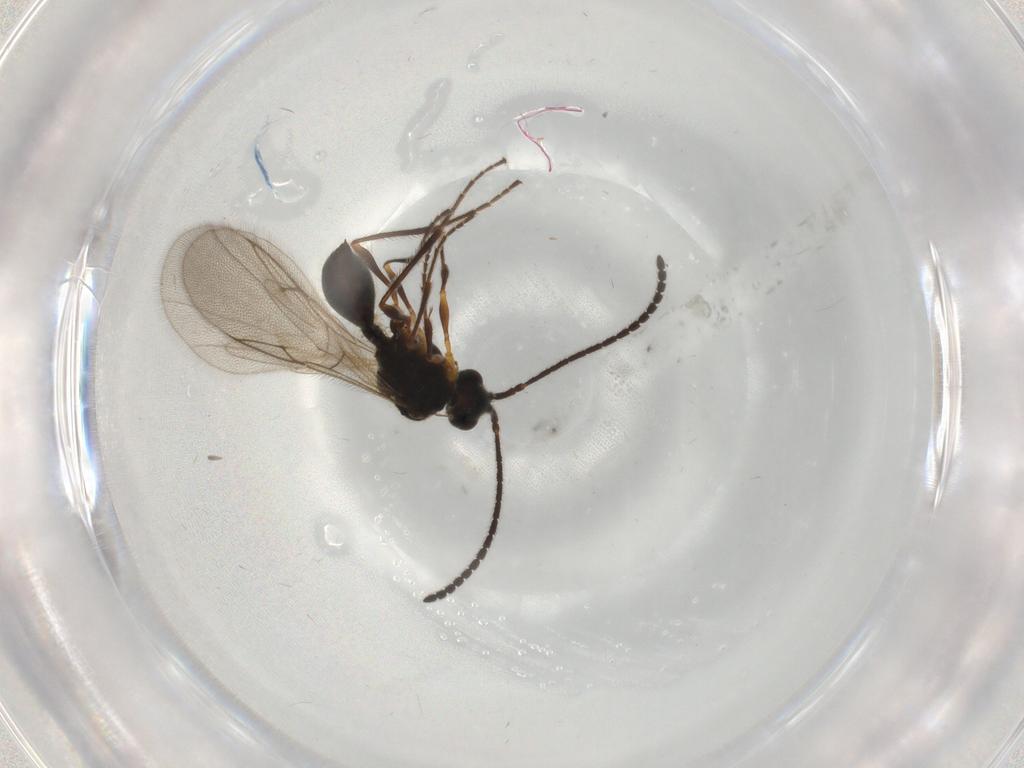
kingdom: Animalia
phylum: Arthropoda
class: Insecta
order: Hymenoptera
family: Diapriidae
